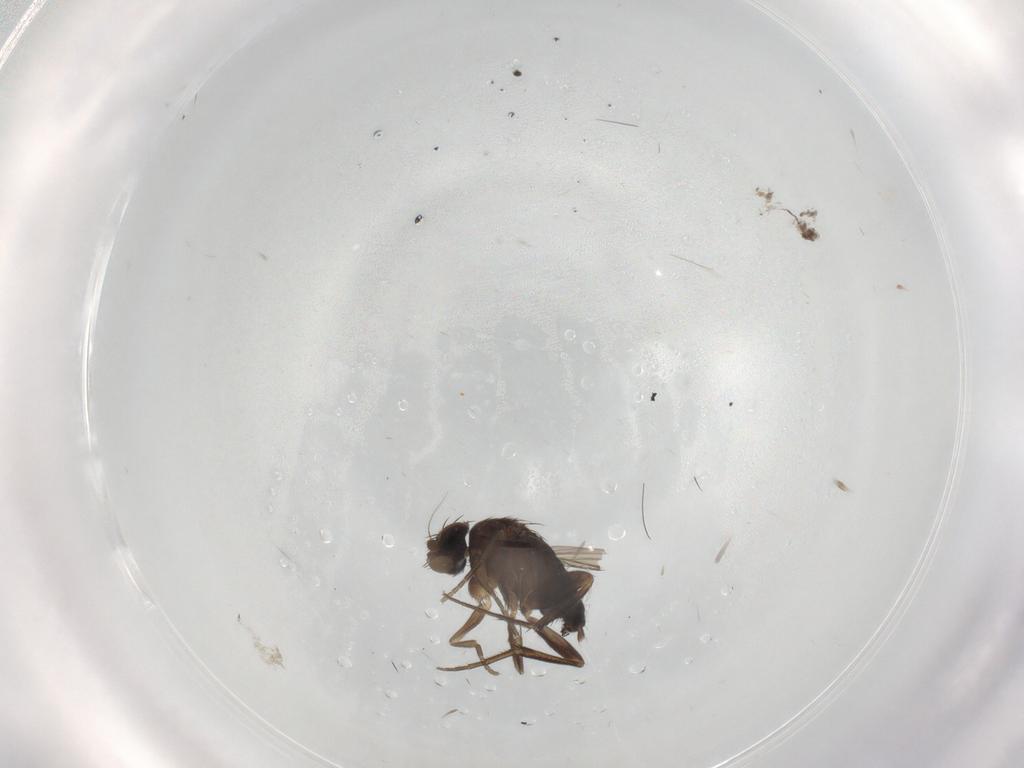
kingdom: Animalia
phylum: Arthropoda
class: Insecta
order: Diptera
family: Phoridae
